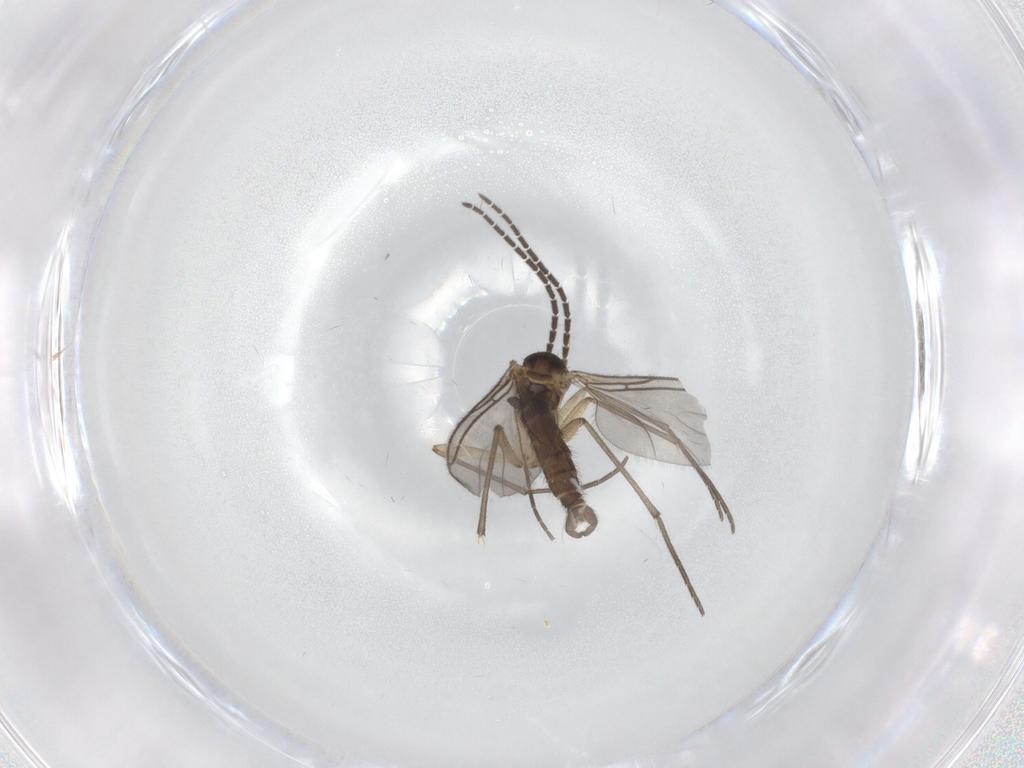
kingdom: Animalia
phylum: Arthropoda
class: Insecta
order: Diptera
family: Sciaridae
